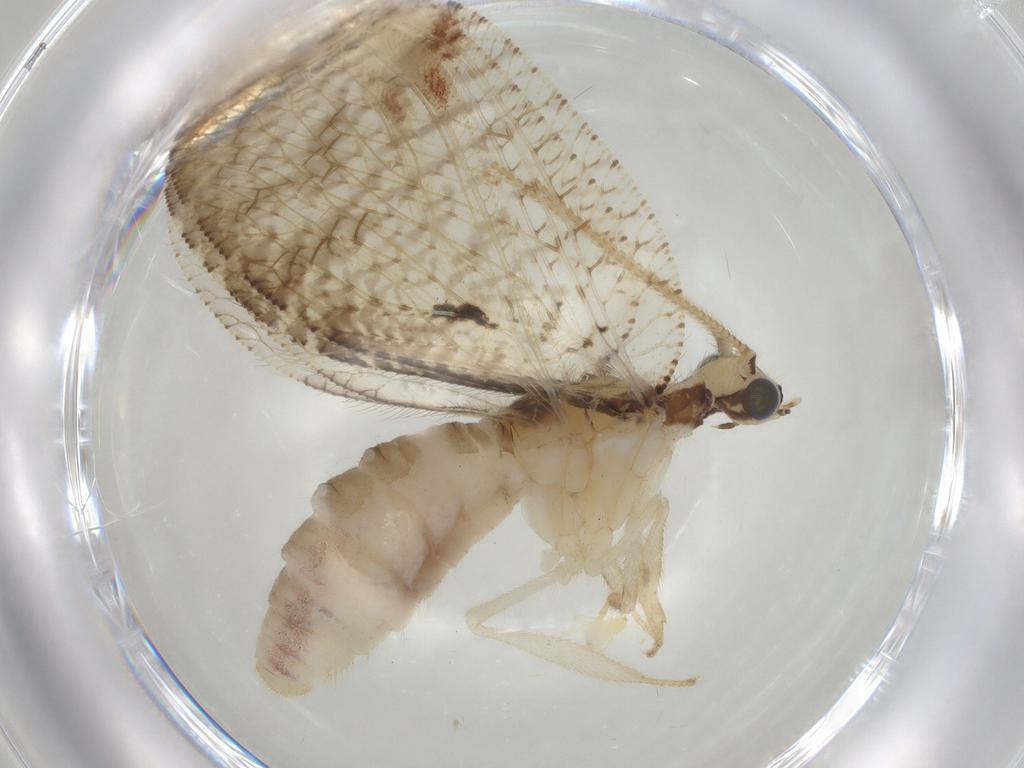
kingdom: Animalia
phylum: Arthropoda
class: Insecta
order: Neuroptera
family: Hemerobiidae
